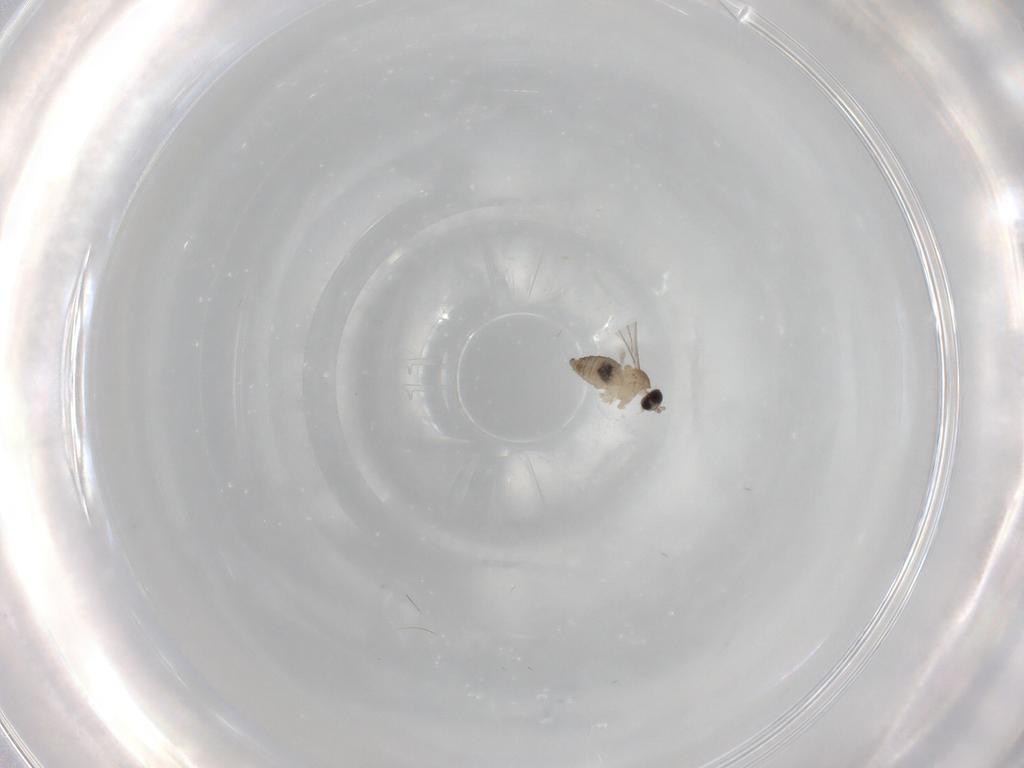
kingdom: Animalia
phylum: Arthropoda
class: Insecta
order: Diptera
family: Cecidomyiidae
